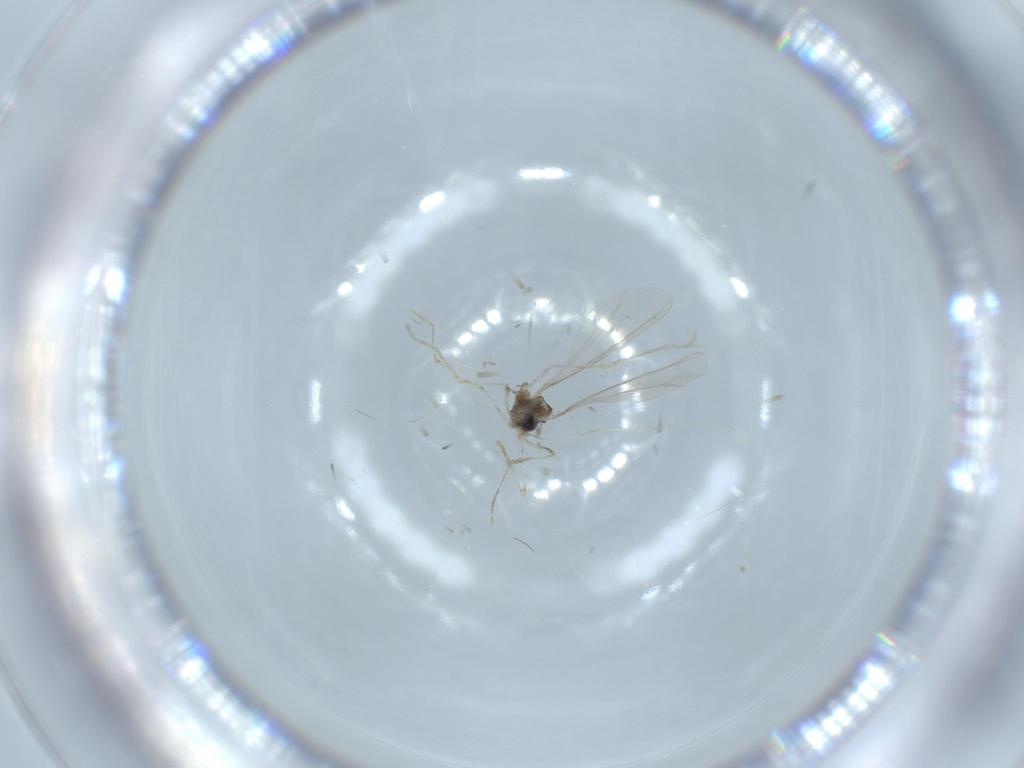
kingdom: Animalia
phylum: Arthropoda
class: Insecta
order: Diptera
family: Cecidomyiidae
